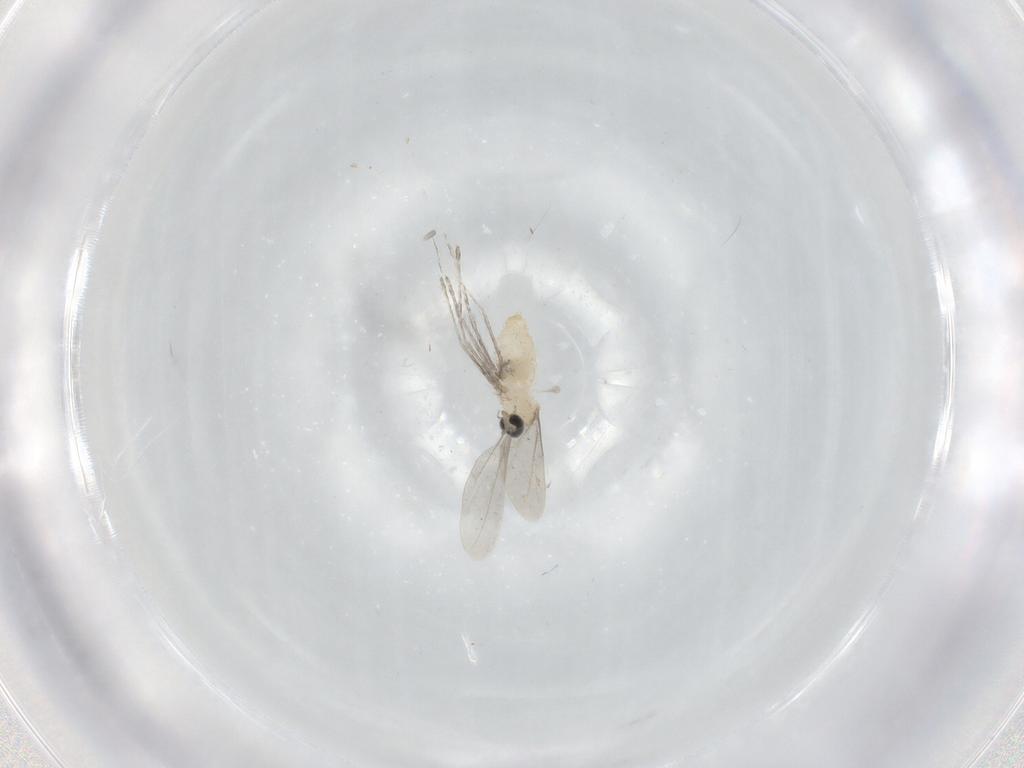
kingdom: Animalia
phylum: Arthropoda
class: Insecta
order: Diptera
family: Cecidomyiidae
